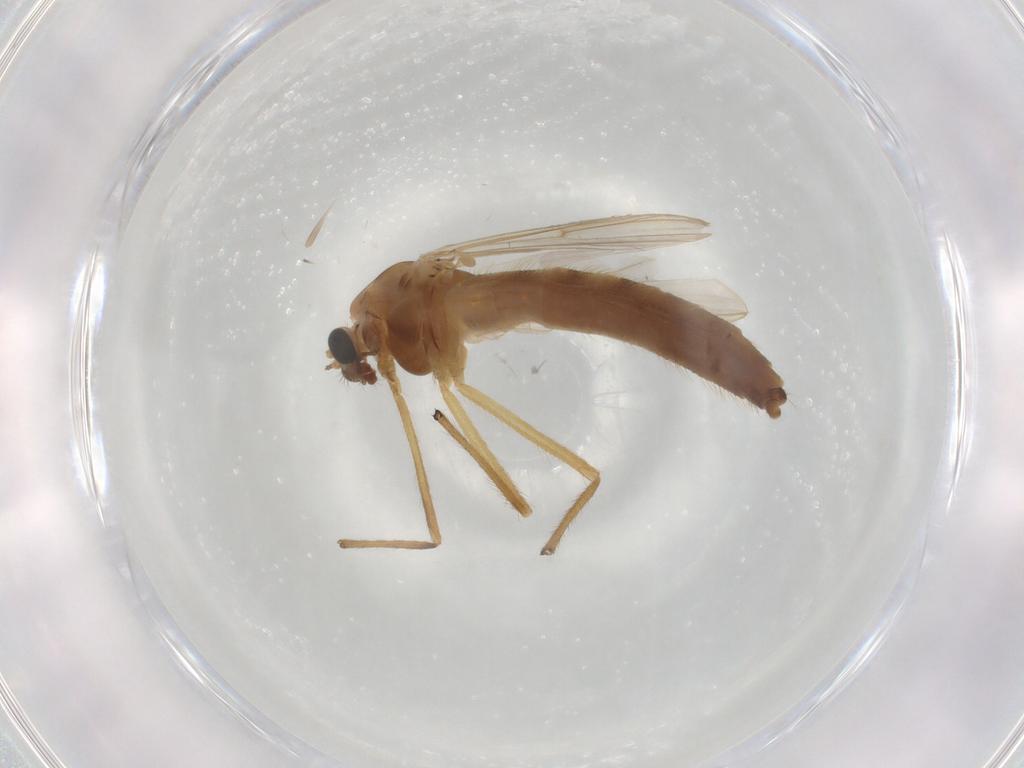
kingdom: Animalia
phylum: Arthropoda
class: Insecta
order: Diptera
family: Chironomidae
